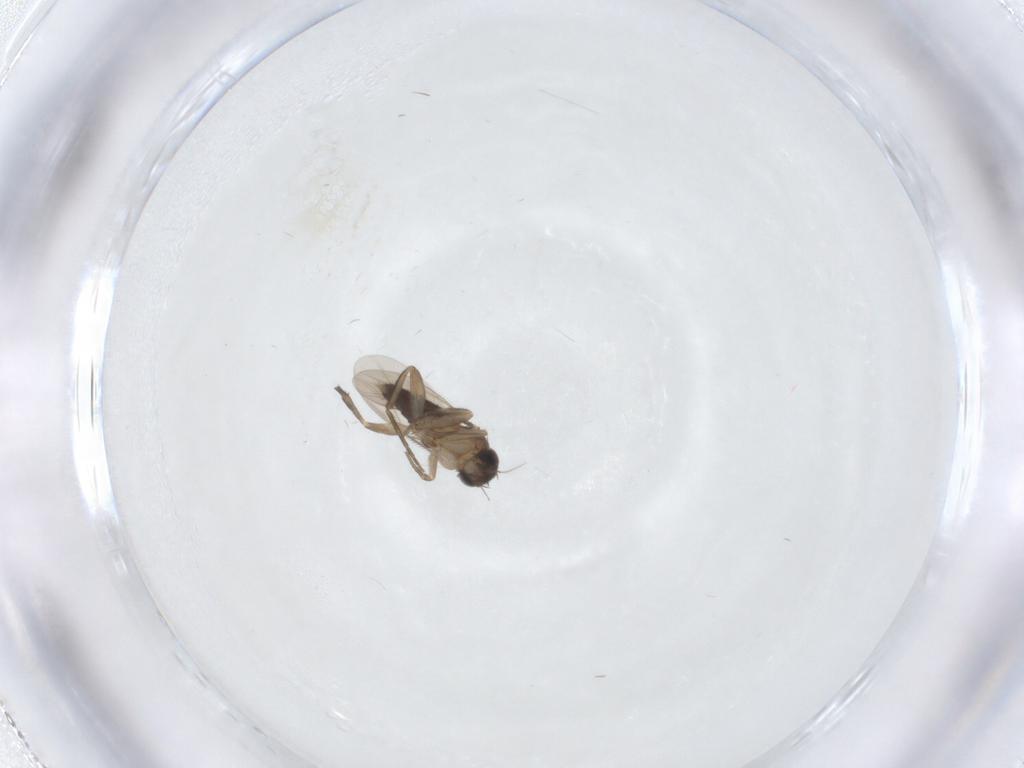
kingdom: Animalia
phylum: Arthropoda
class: Insecta
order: Diptera
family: Phoridae
